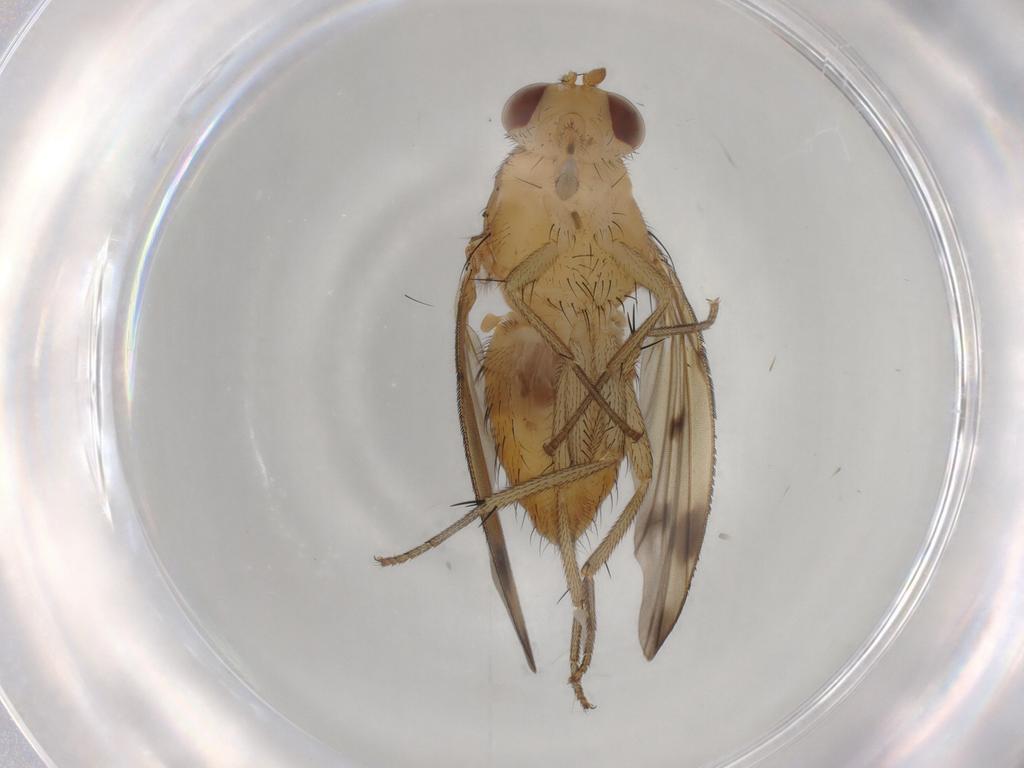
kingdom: Animalia
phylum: Arthropoda
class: Insecta
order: Diptera
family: Lauxaniidae
